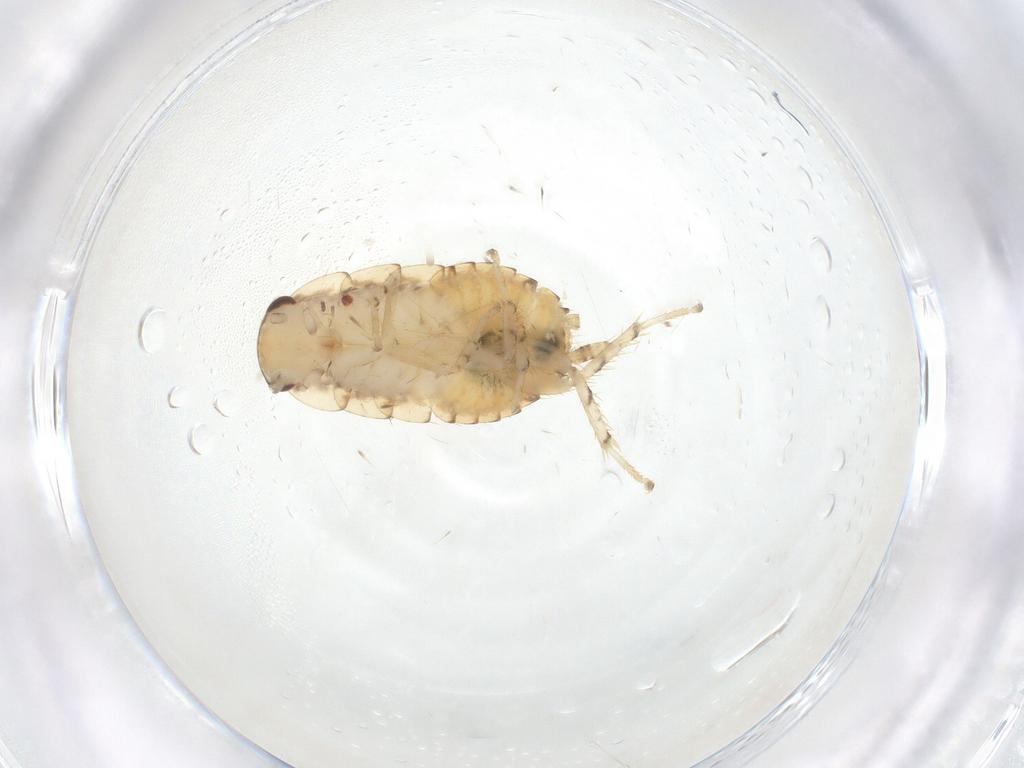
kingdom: Animalia
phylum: Arthropoda
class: Insecta
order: Blattodea
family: Ectobiidae
